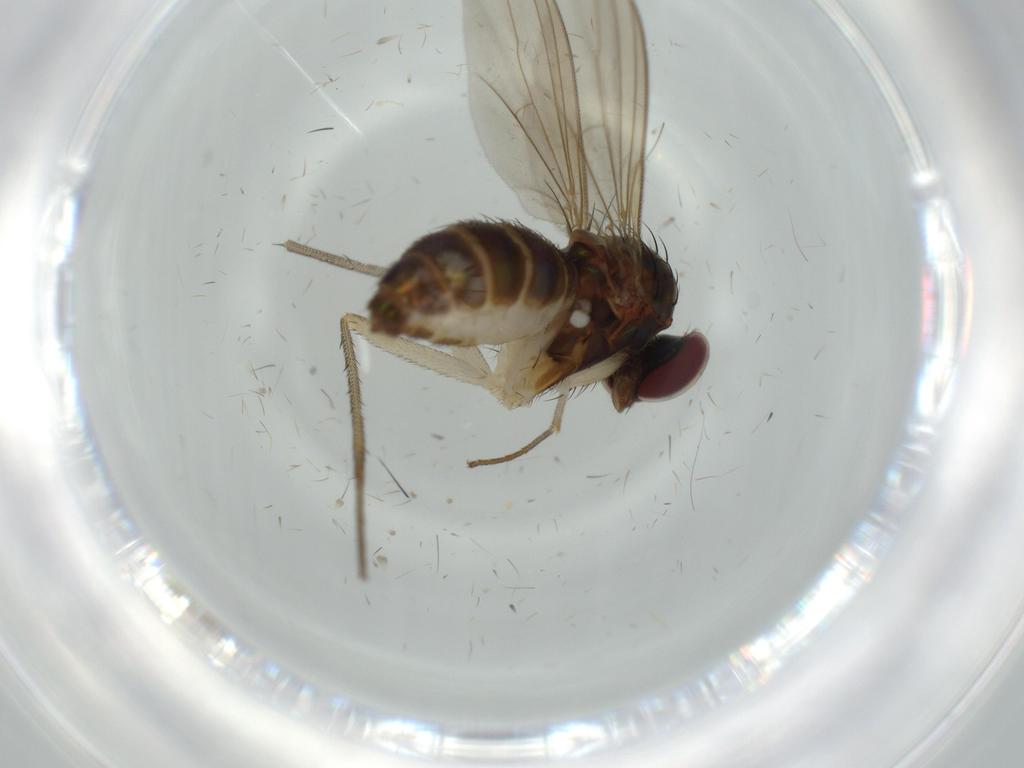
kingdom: Animalia
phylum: Arthropoda
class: Insecta
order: Diptera
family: Dolichopodidae
